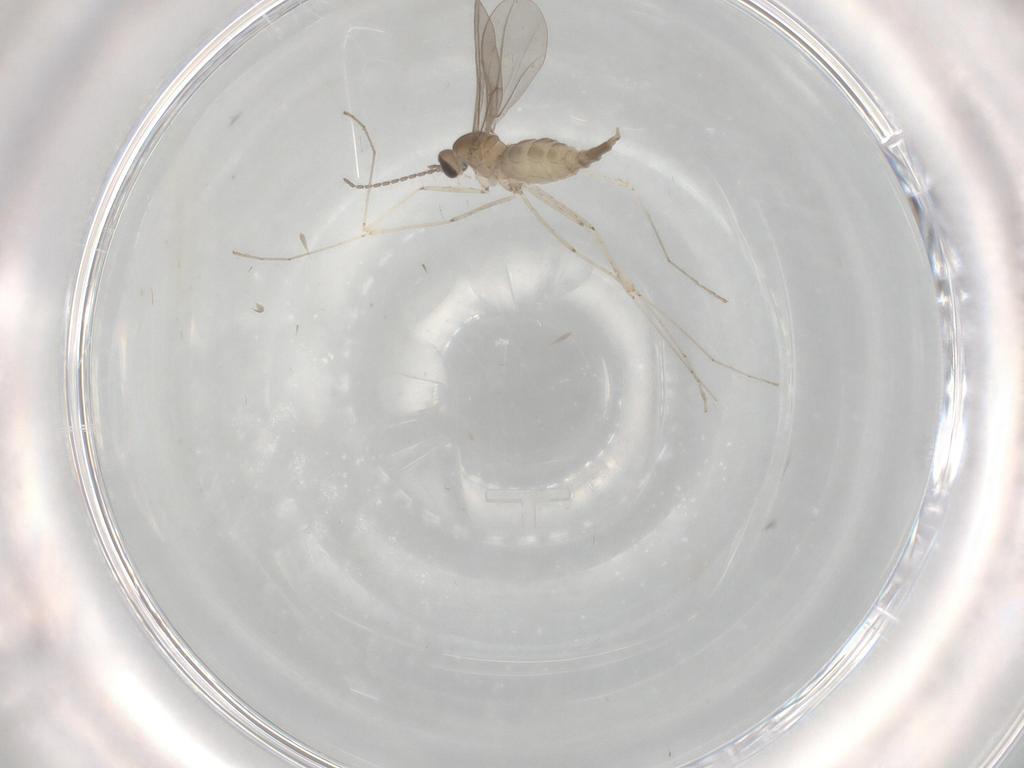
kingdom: Animalia
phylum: Arthropoda
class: Insecta
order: Diptera
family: Sciaridae
